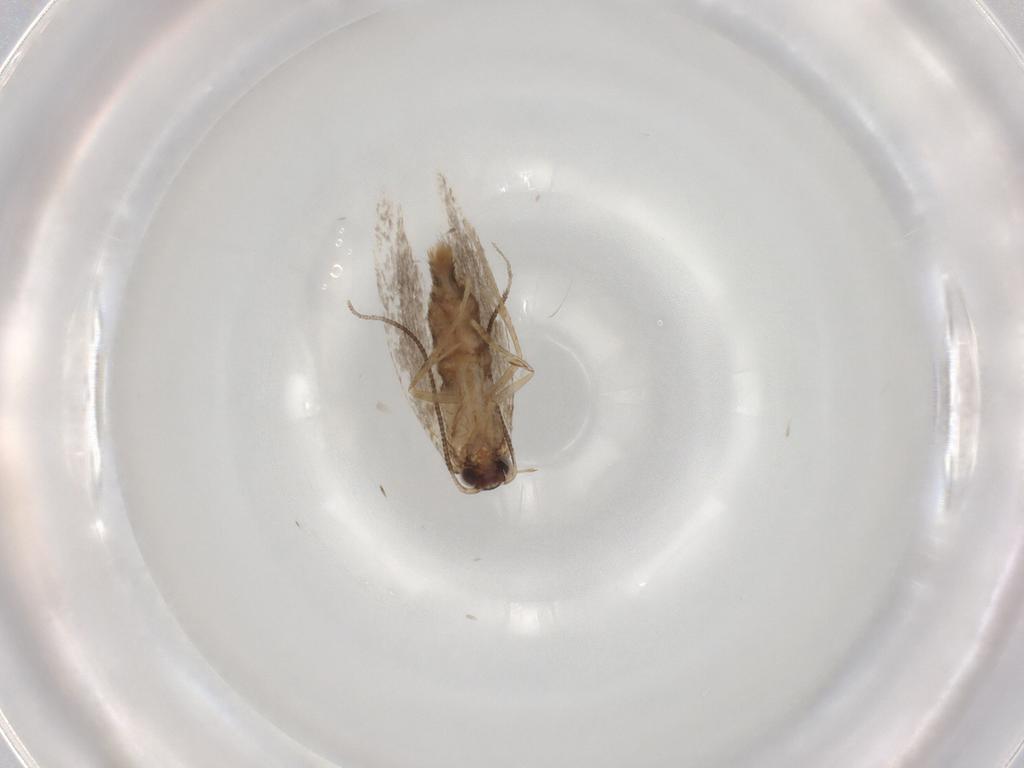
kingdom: Animalia
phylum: Arthropoda
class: Insecta
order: Lepidoptera
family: Tineidae
